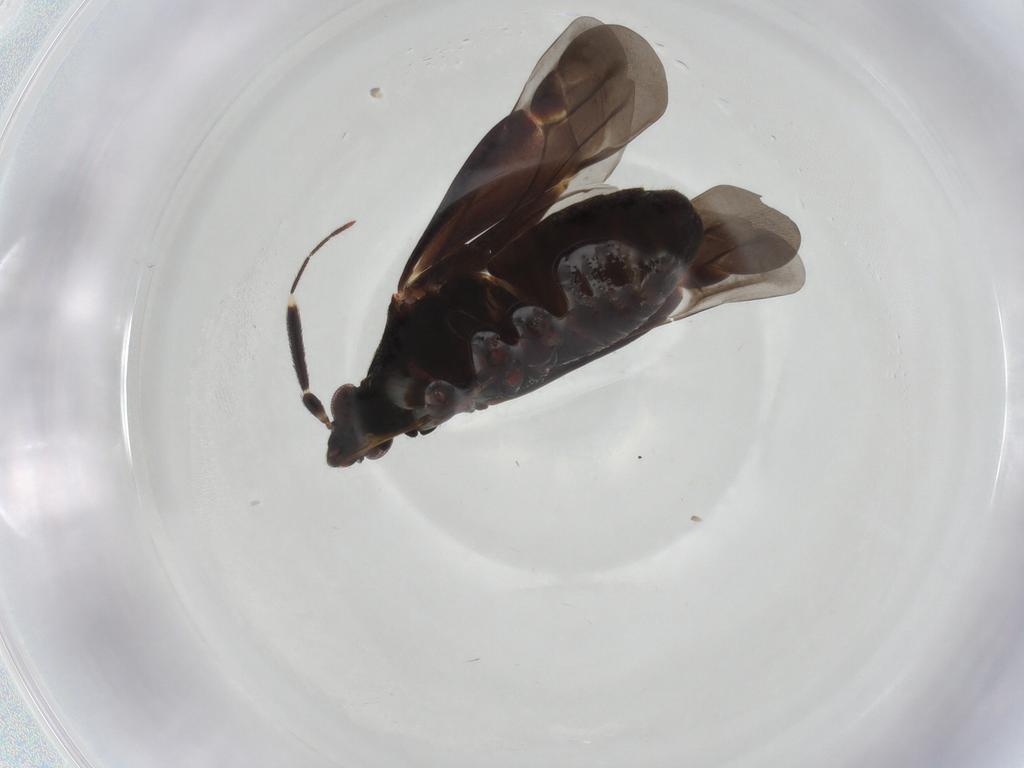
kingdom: Animalia
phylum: Arthropoda
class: Insecta
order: Hemiptera
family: Miridae
